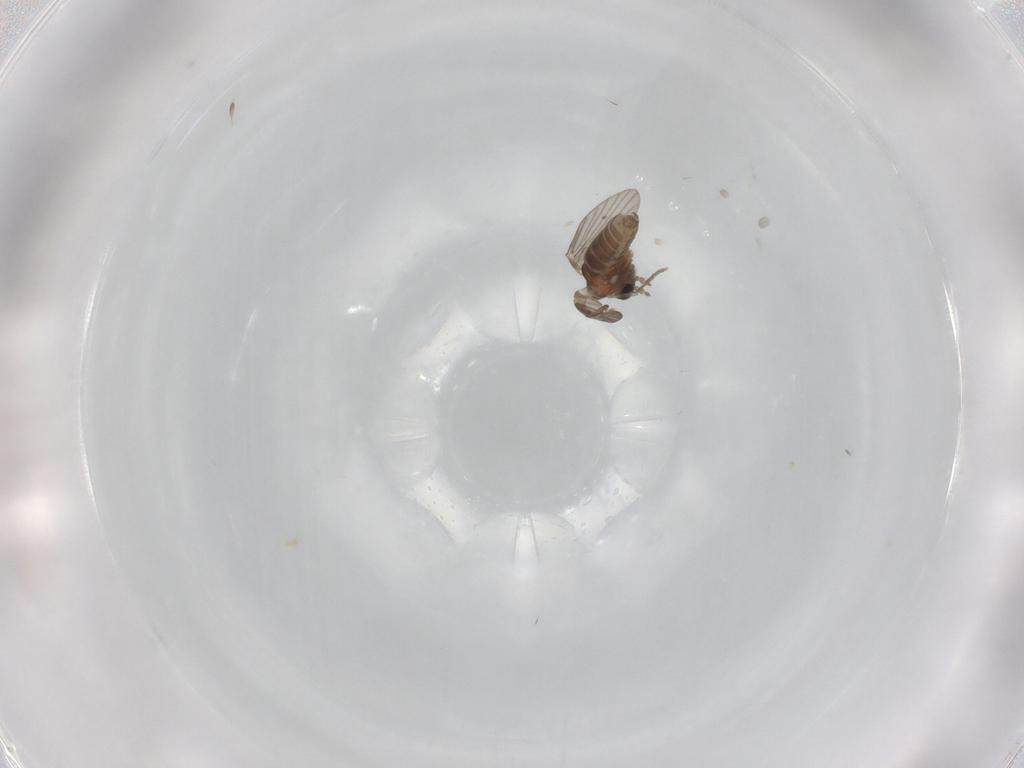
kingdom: Animalia
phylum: Arthropoda
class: Insecta
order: Diptera
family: Psychodidae
